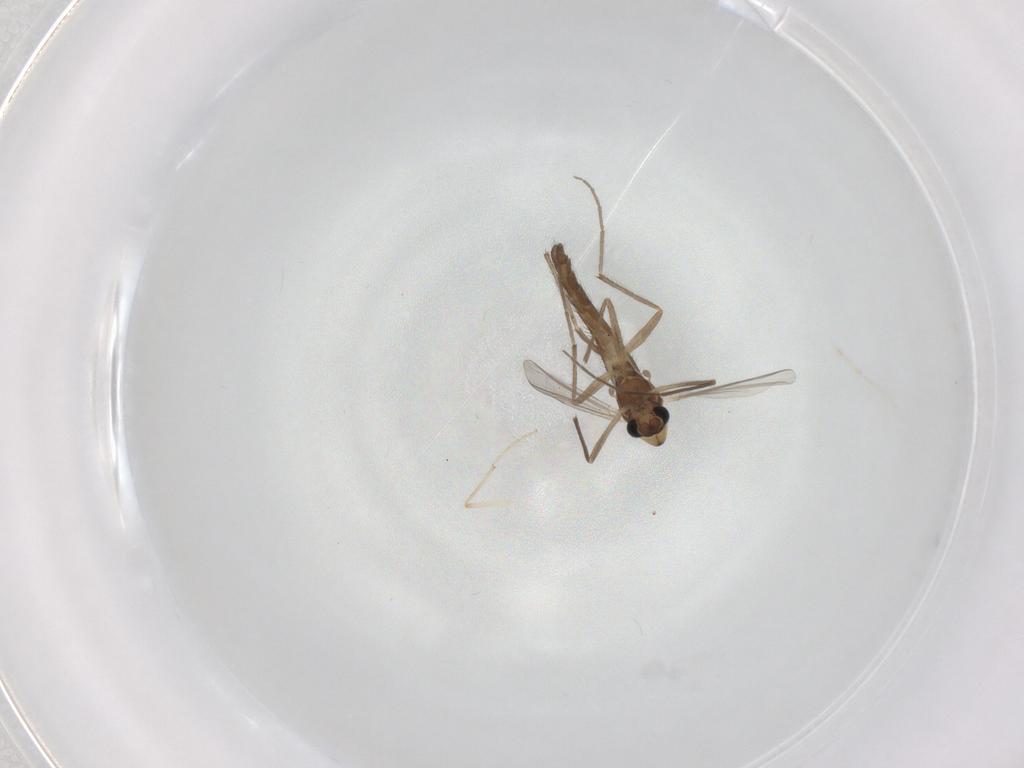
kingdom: Animalia
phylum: Arthropoda
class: Insecta
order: Diptera
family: Chironomidae
